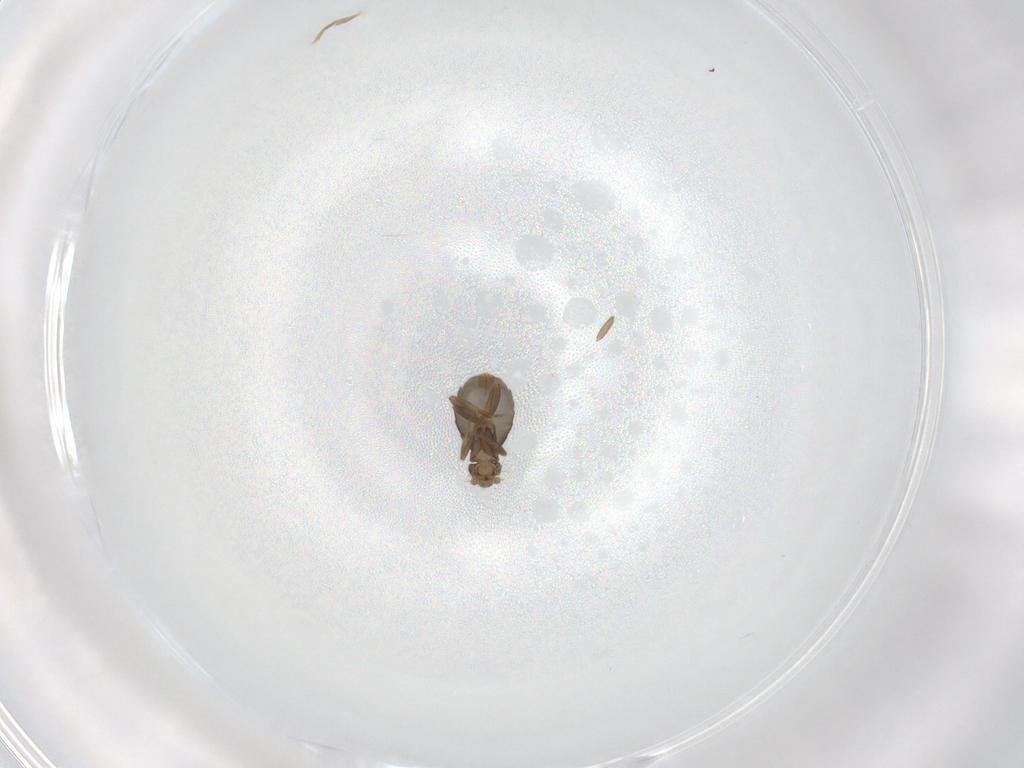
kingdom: Animalia
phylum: Arthropoda
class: Insecta
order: Diptera
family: Phoridae
